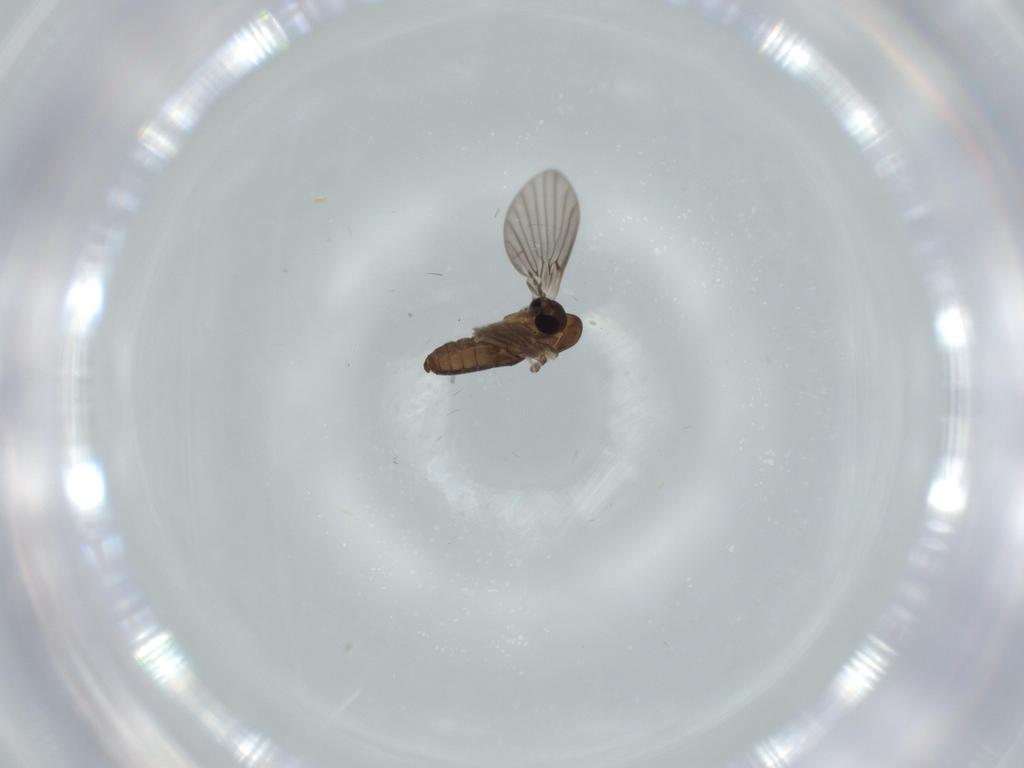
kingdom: Animalia
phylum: Arthropoda
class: Insecta
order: Diptera
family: Psychodidae
